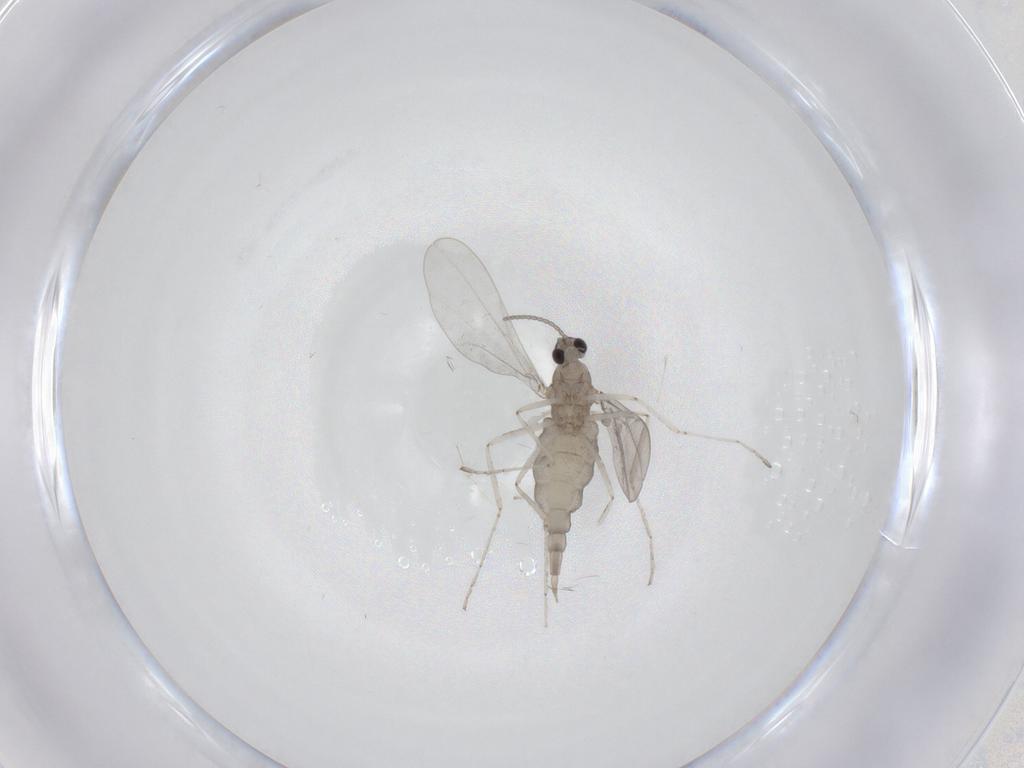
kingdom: Animalia
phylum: Arthropoda
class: Insecta
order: Diptera
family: Cecidomyiidae
